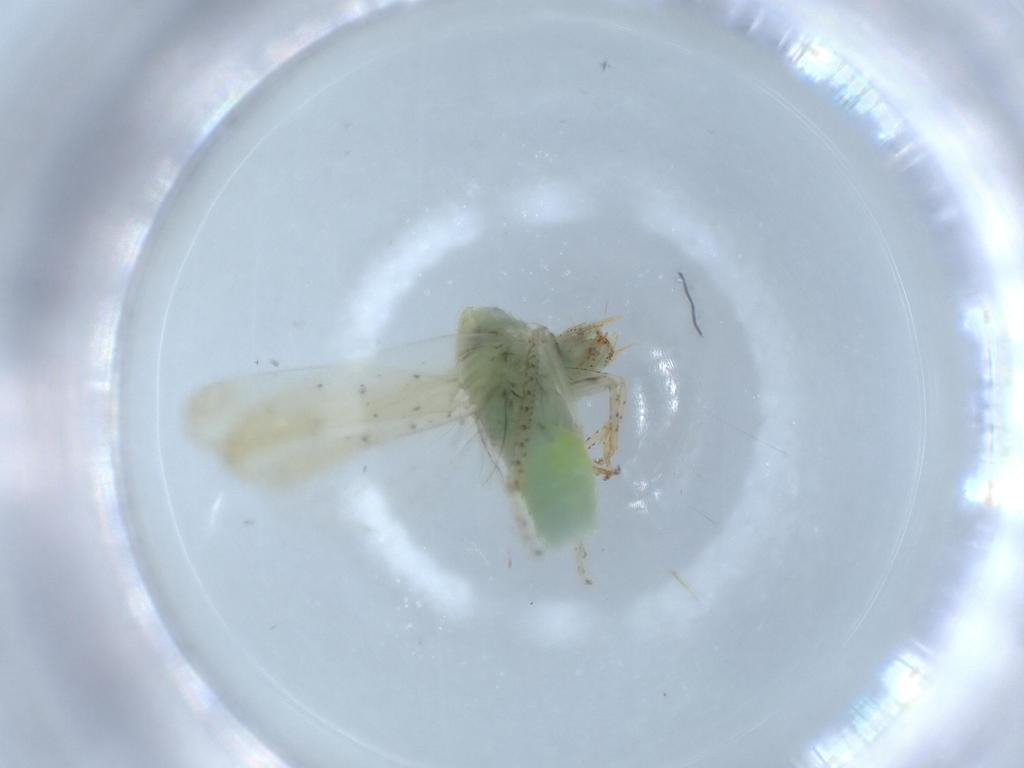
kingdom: Animalia
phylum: Arthropoda
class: Insecta
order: Hemiptera
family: Cicadellidae
